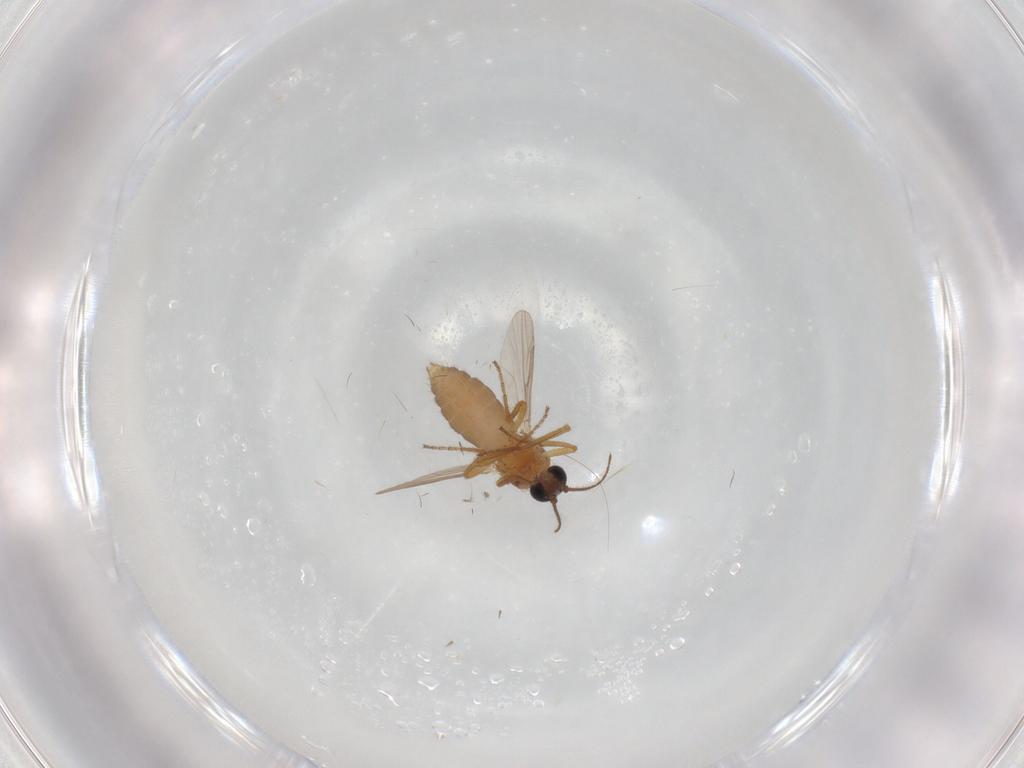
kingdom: Animalia
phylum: Arthropoda
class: Insecta
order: Diptera
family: Ceratopogonidae
